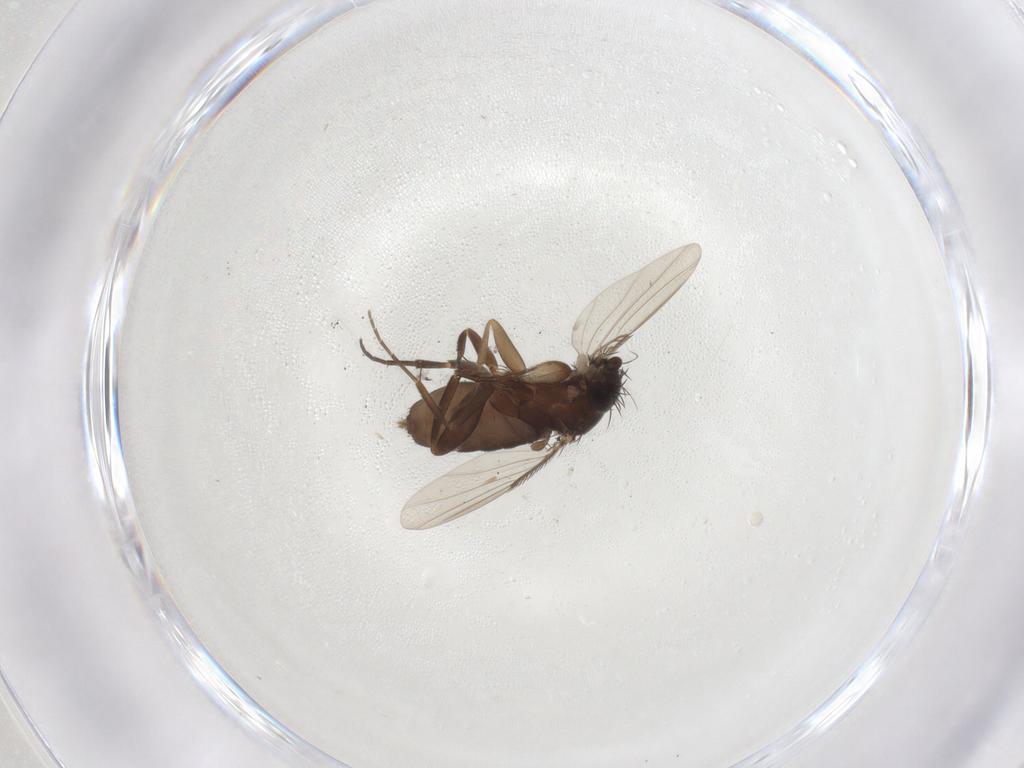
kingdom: Animalia
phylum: Arthropoda
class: Insecta
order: Diptera
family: Phoridae
